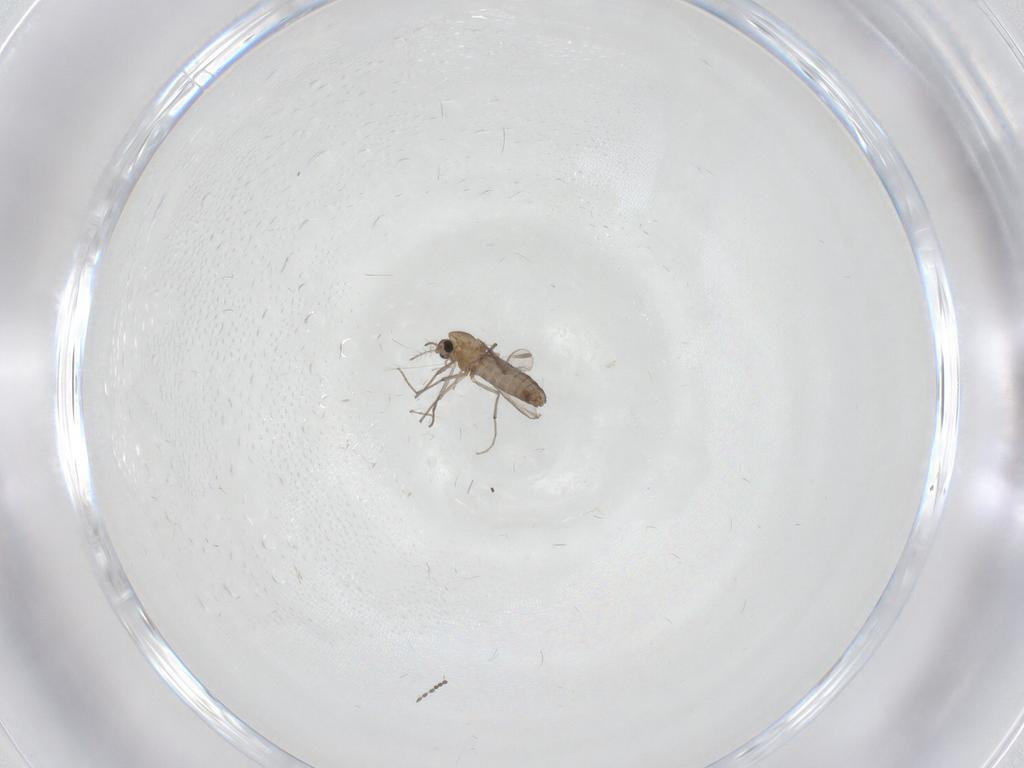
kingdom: Animalia
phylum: Arthropoda
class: Insecta
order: Diptera
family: Cecidomyiidae
